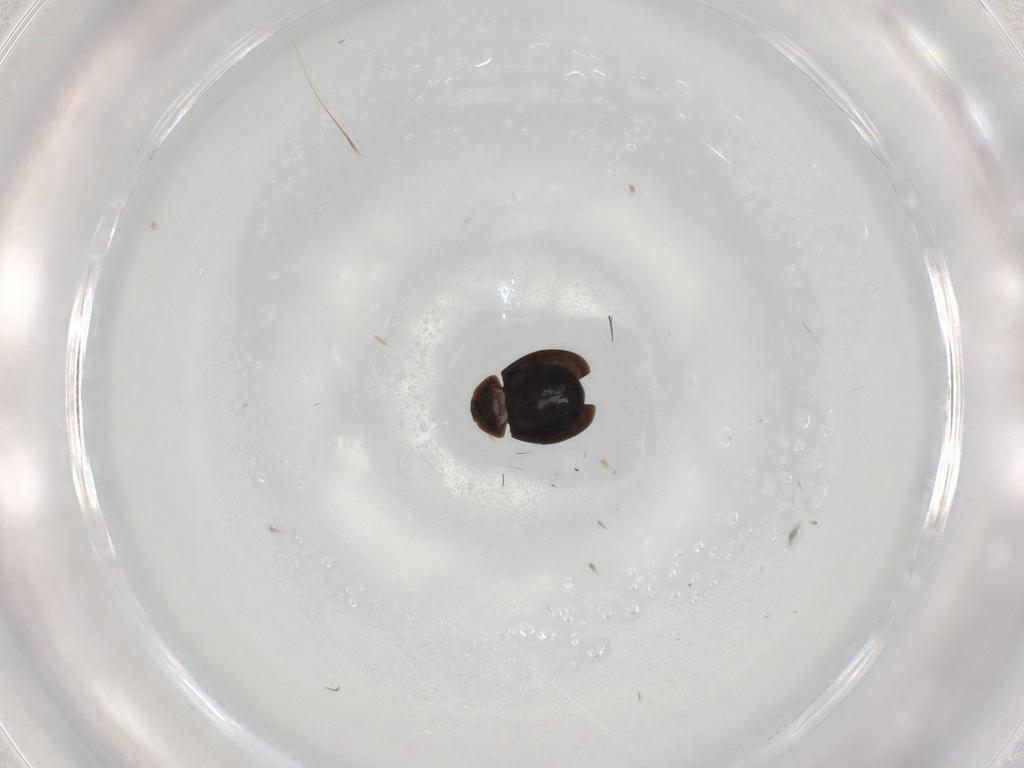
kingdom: Animalia
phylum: Arthropoda
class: Insecta
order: Coleoptera
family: Corylophidae
